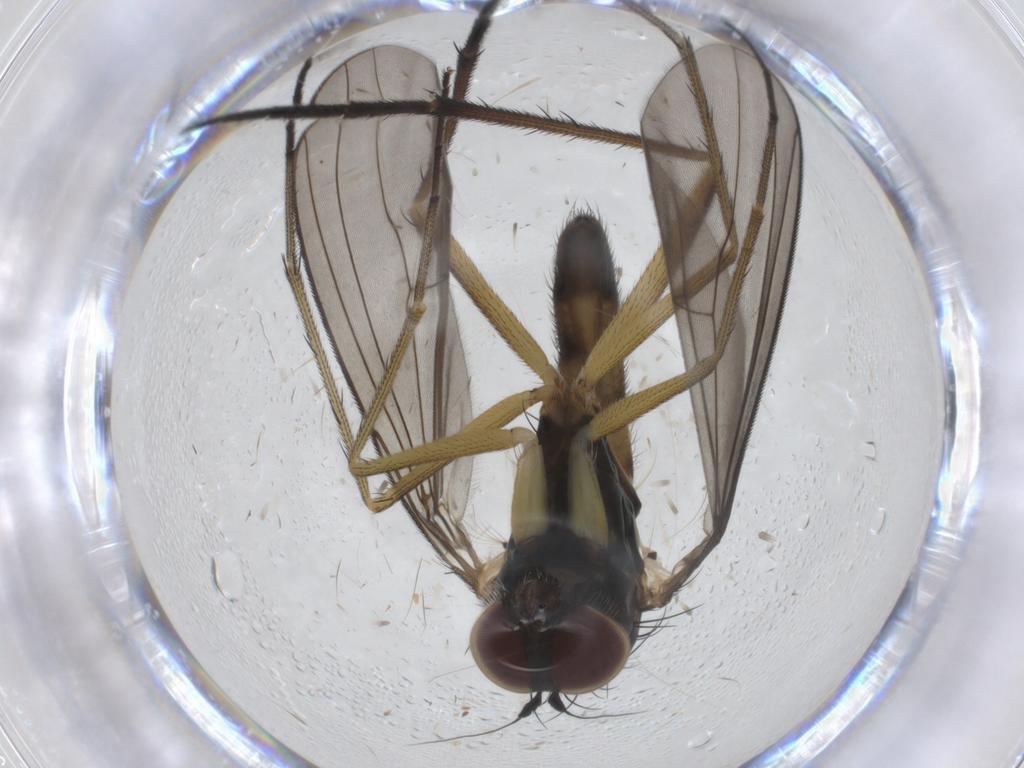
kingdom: Animalia
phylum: Arthropoda
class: Insecta
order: Diptera
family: Dolichopodidae
